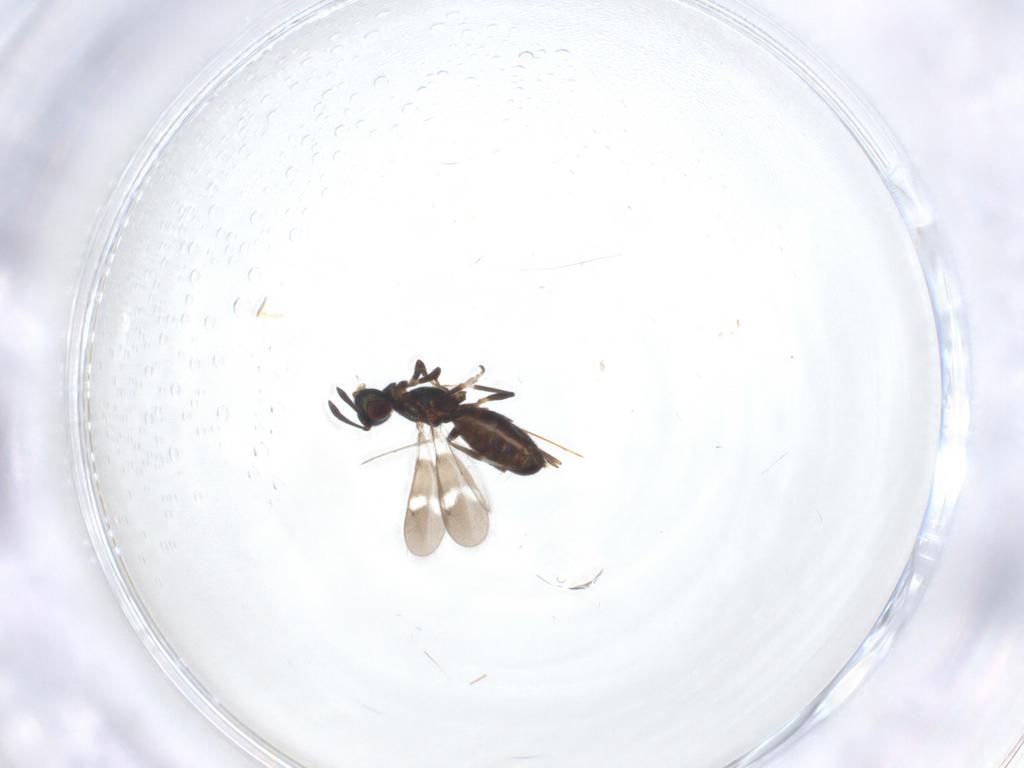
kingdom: Animalia
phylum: Arthropoda
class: Insecta
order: Hymenoptera
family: Eupelmidae
